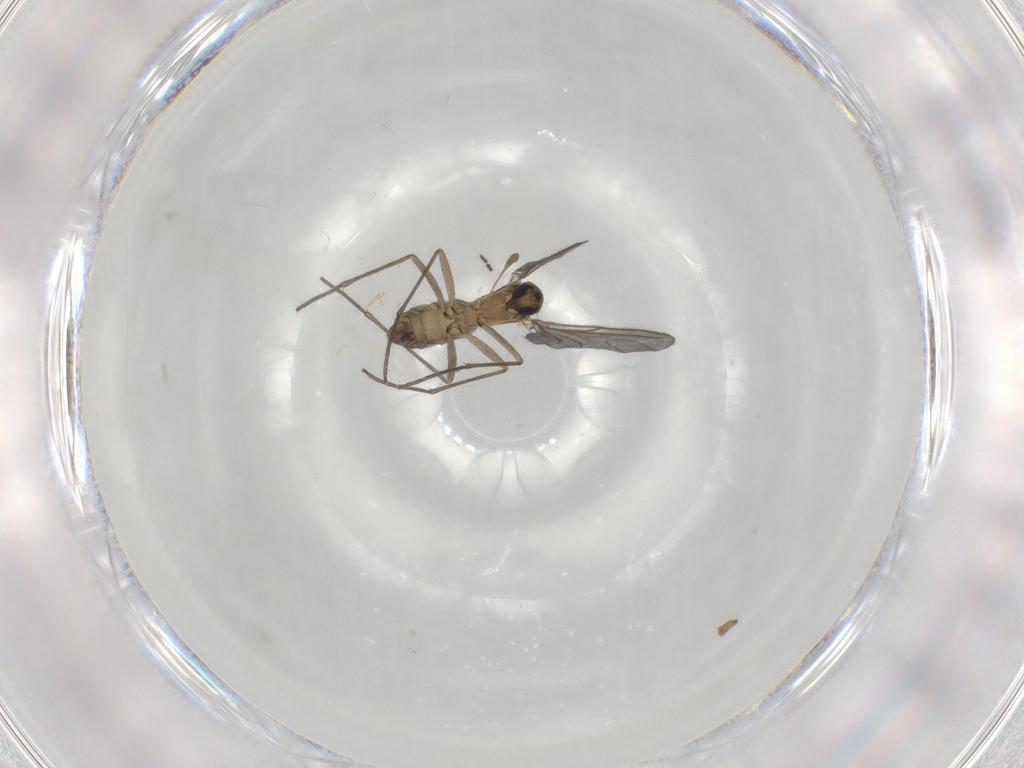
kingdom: Animalia
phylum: Arthropoda
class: Insecta
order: Diptera
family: Sciaridae
